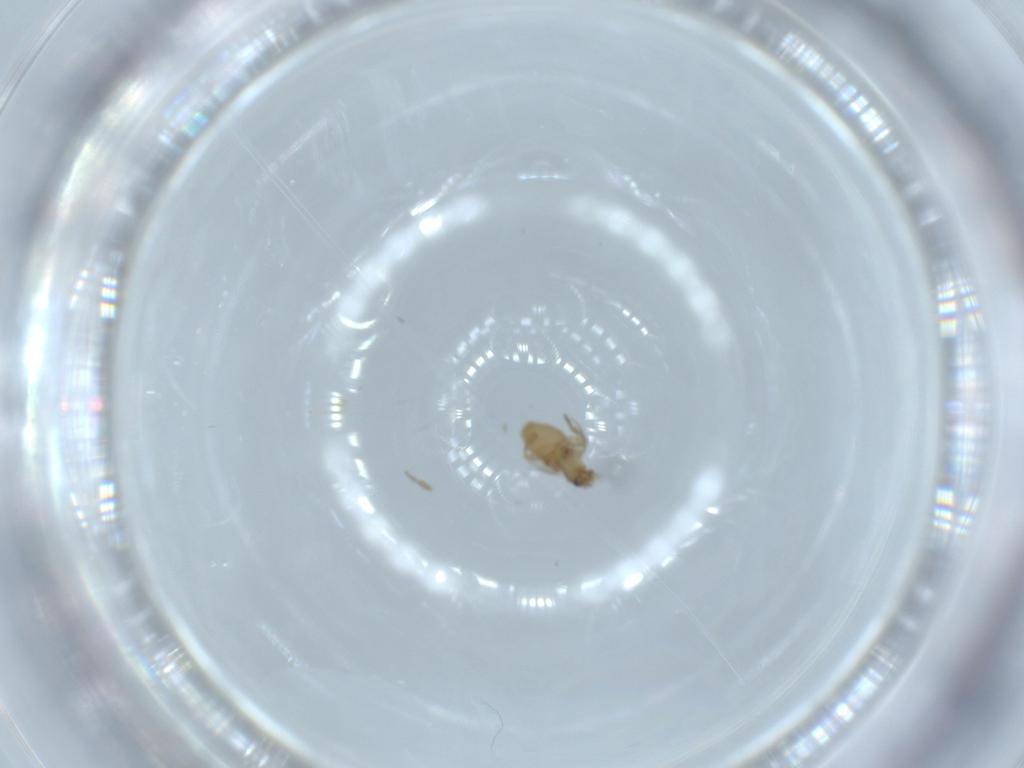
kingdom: Animalia
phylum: Arthropoda
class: Insecta
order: Diptera
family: Phoridae
